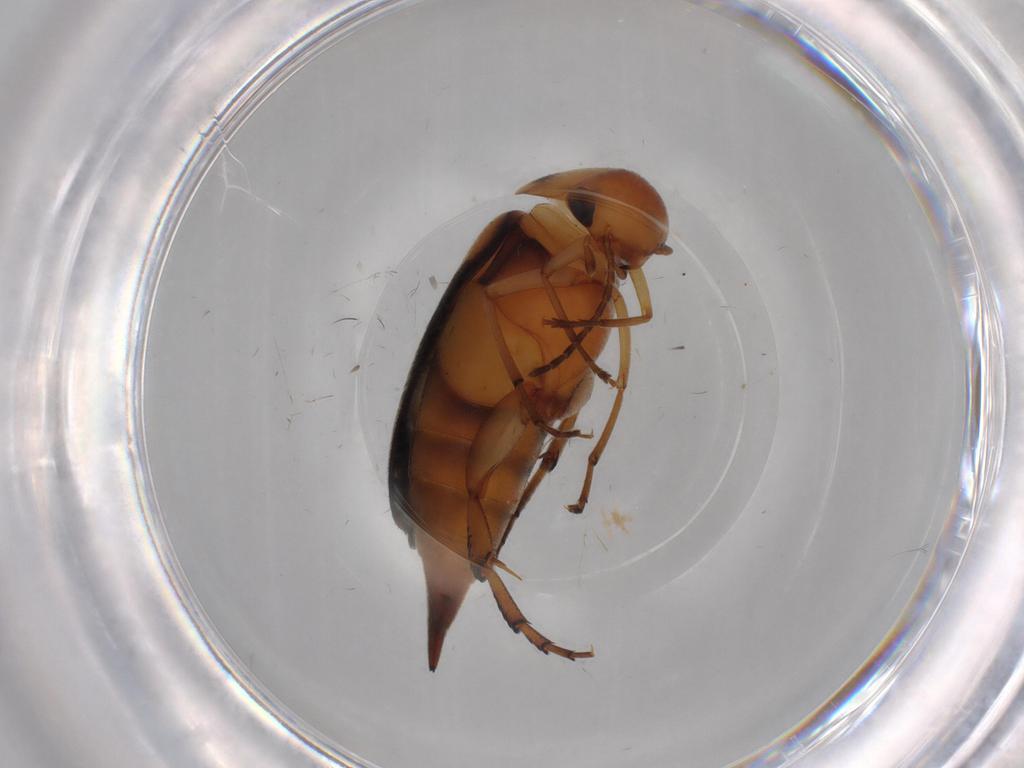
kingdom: Animalia
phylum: Arthropoda
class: Insecta
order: Coleoptera
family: Mordellidae
